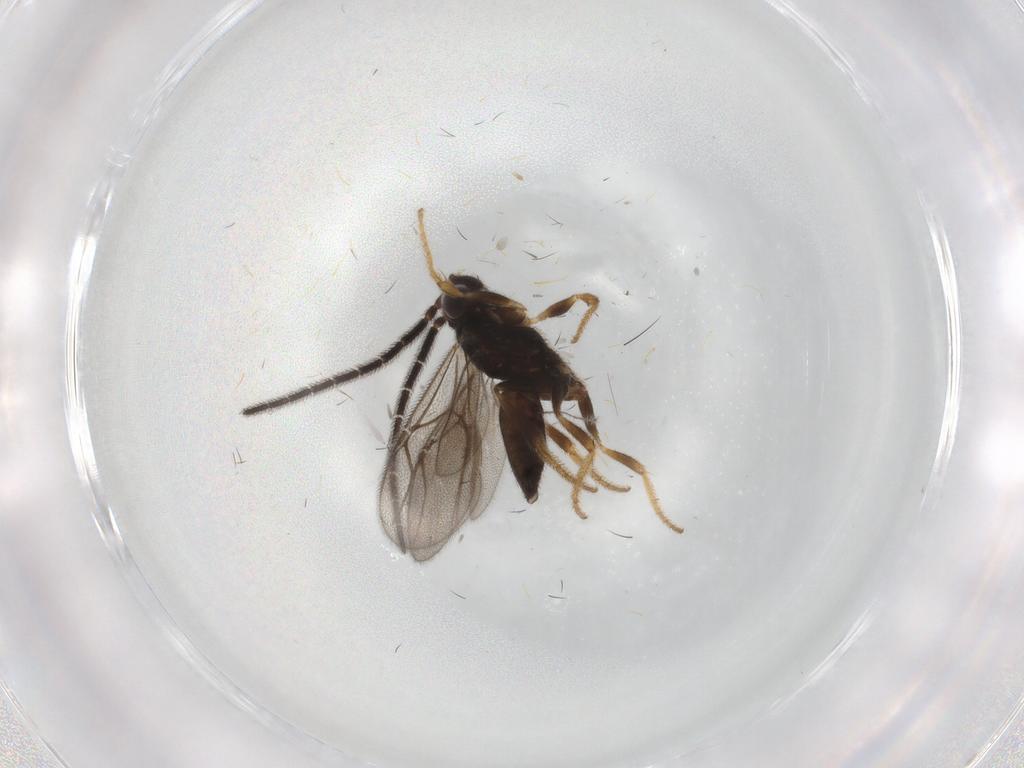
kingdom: Animalia
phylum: Arthropoda
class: Insecta
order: Hymenoptera
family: Dryinidae
